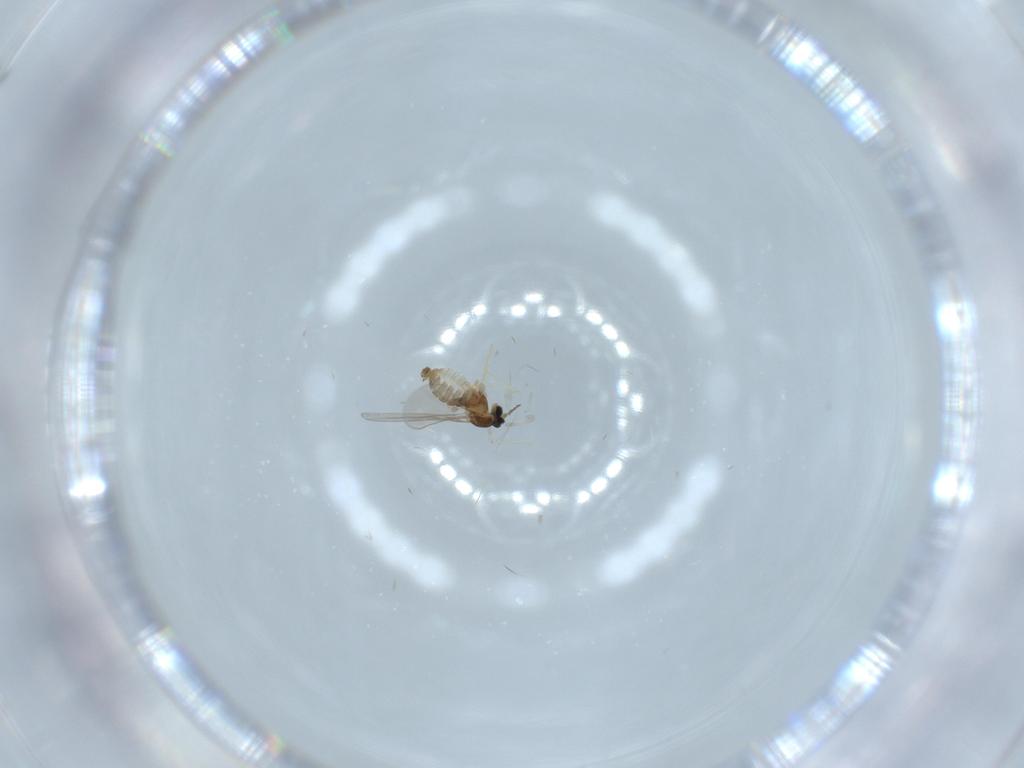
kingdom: Animalia
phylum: Arthropoda
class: Insecta
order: Diptera
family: Cecidomyiidae
